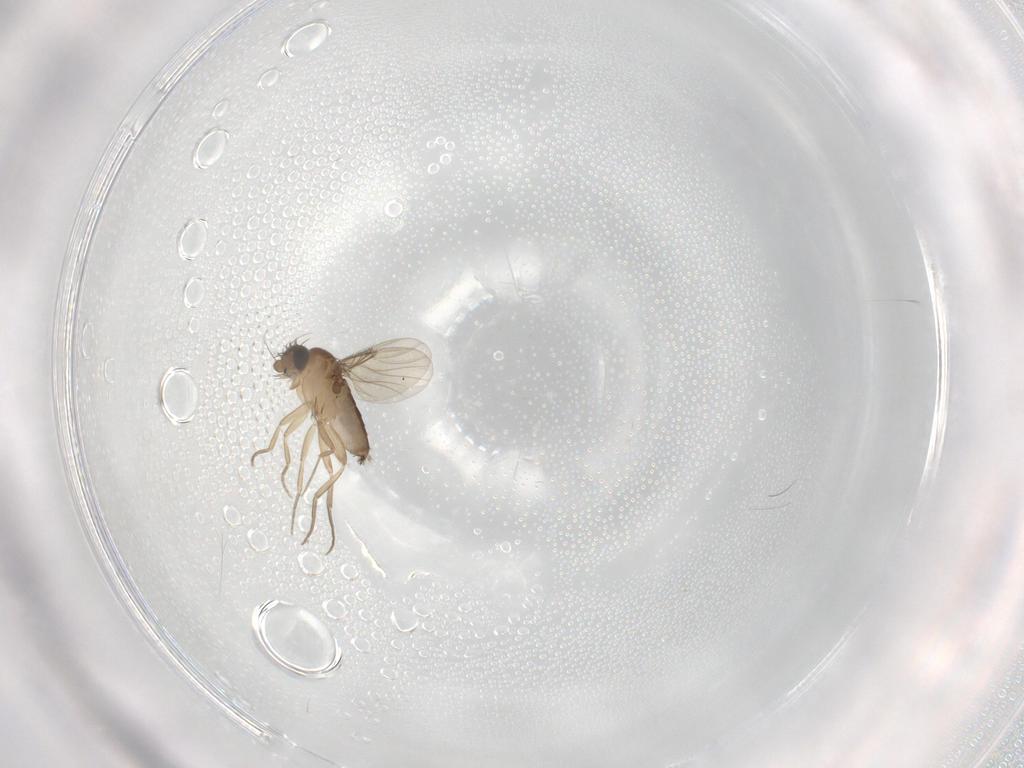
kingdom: Animalia
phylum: Arthropoda
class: Insecta
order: Diptera
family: Phoridae
